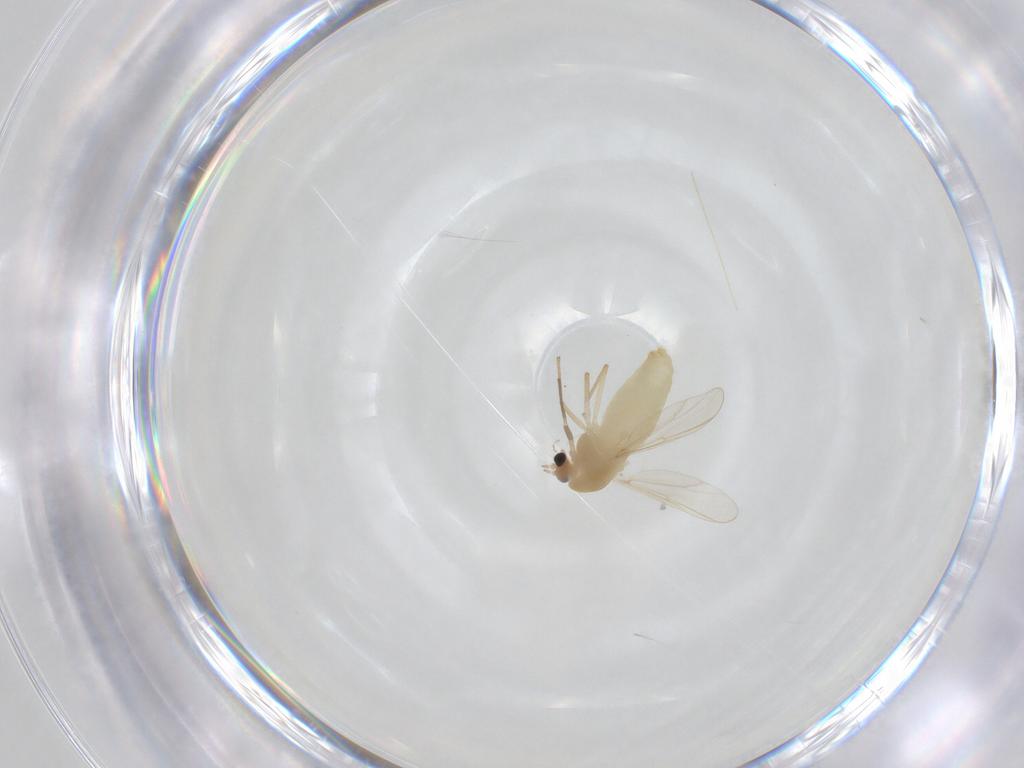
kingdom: Animalia
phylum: Arthropoda
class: Insecta
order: Diptera
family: Chironomidae
